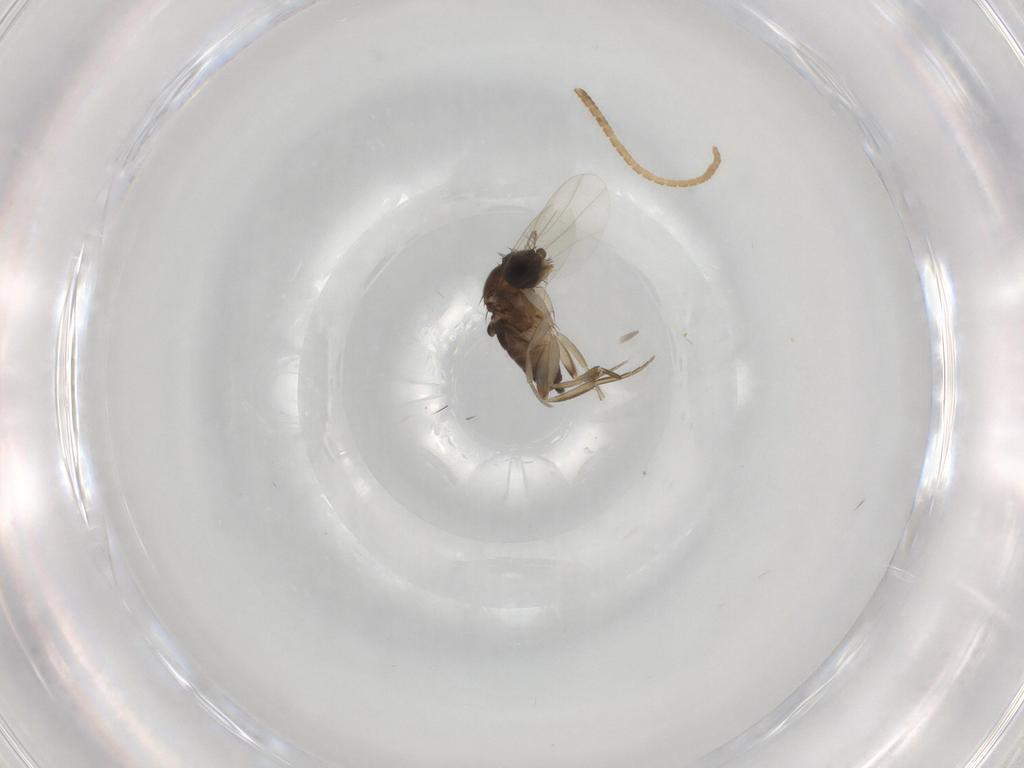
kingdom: Animalia
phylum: Arthropoda
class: Insecta
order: Diptera
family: Phoridae
